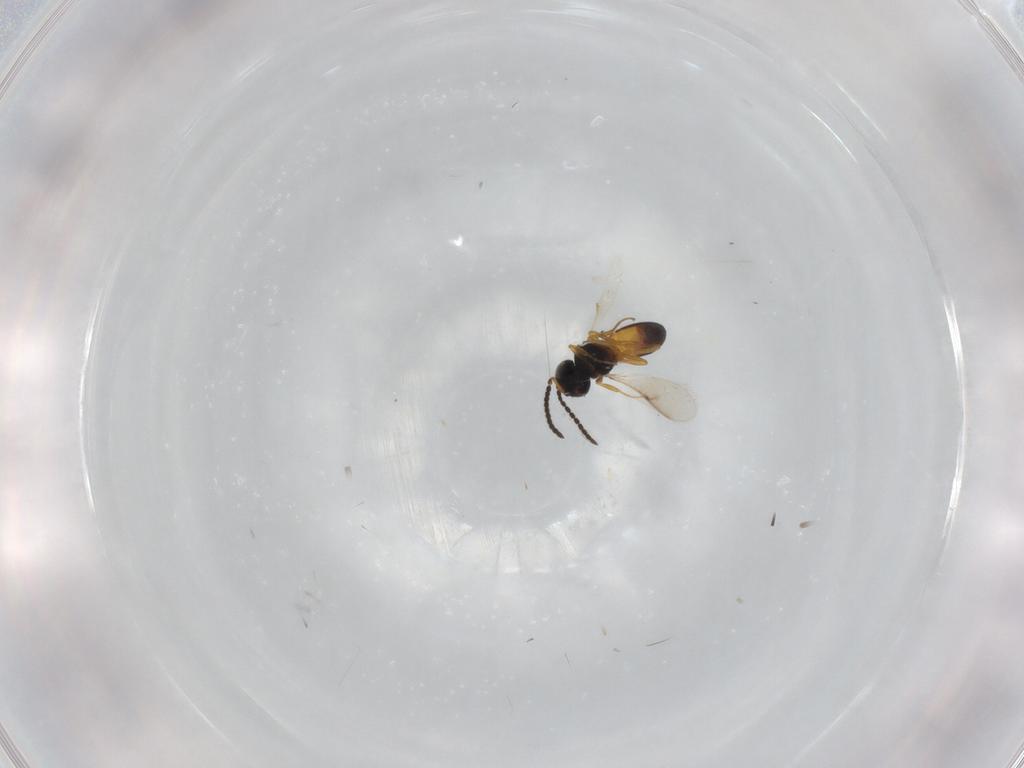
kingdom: Animalia
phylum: Arthropoda
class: Insecta
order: Hymenoptera
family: Scelionidae
